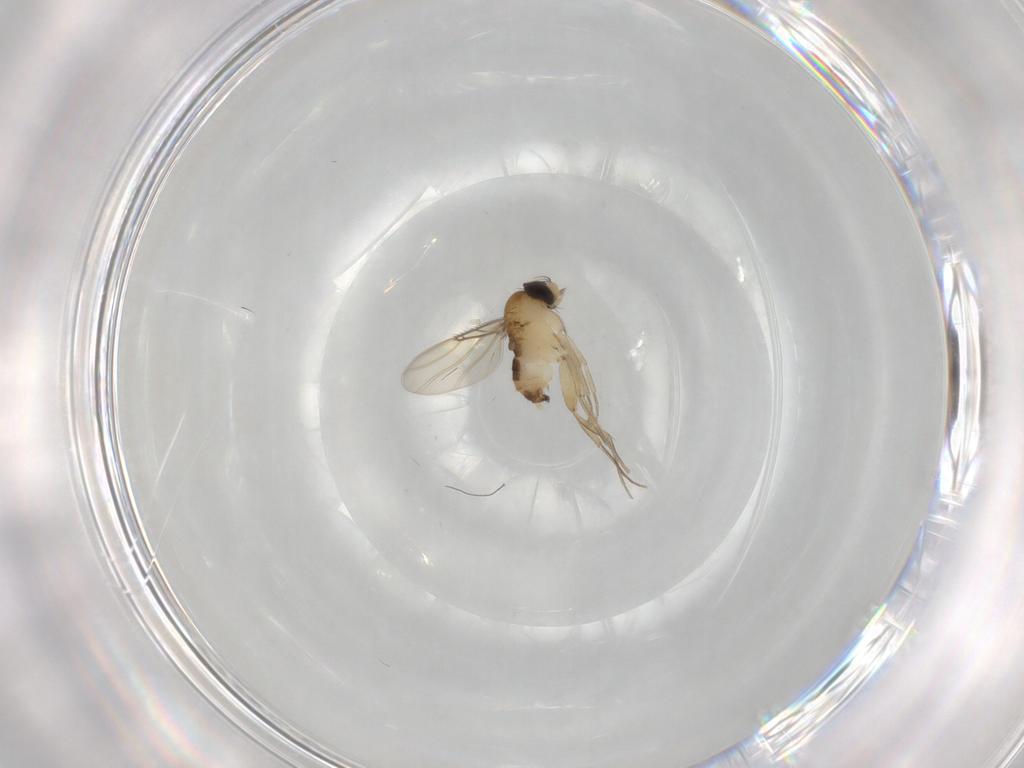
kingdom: Animalia
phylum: Arthropoda
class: Insecta
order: Diptera
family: Phoridae
